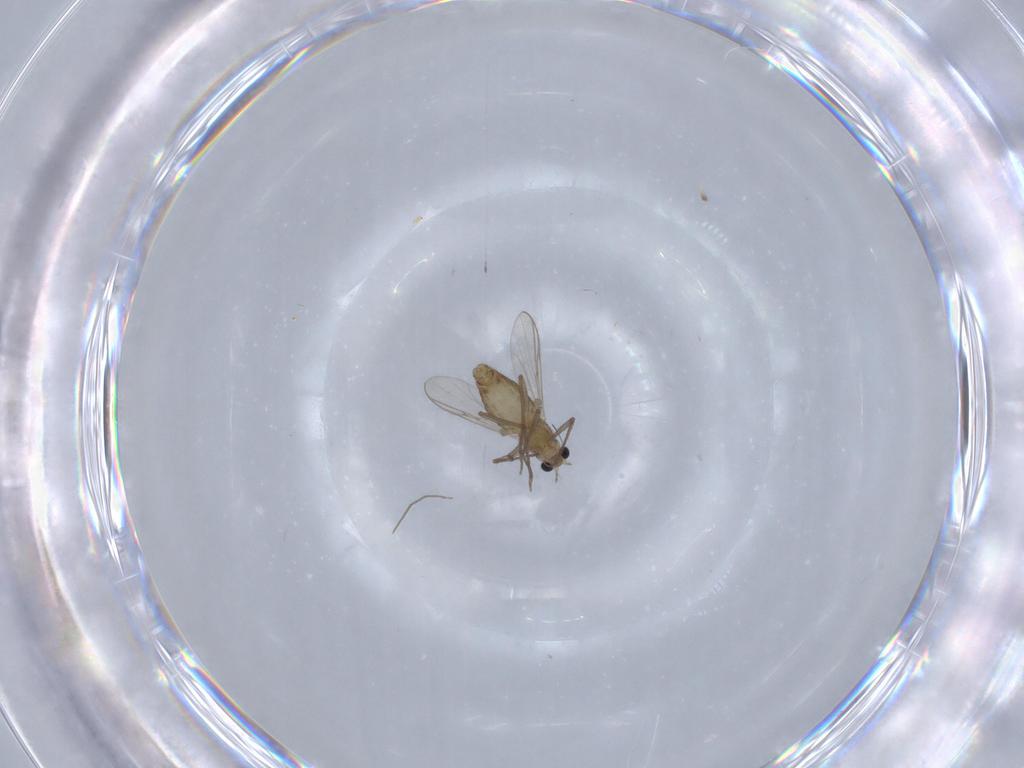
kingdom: Animalia
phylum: Arthropoda
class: Insecta
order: Diptera
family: Chironomidae
